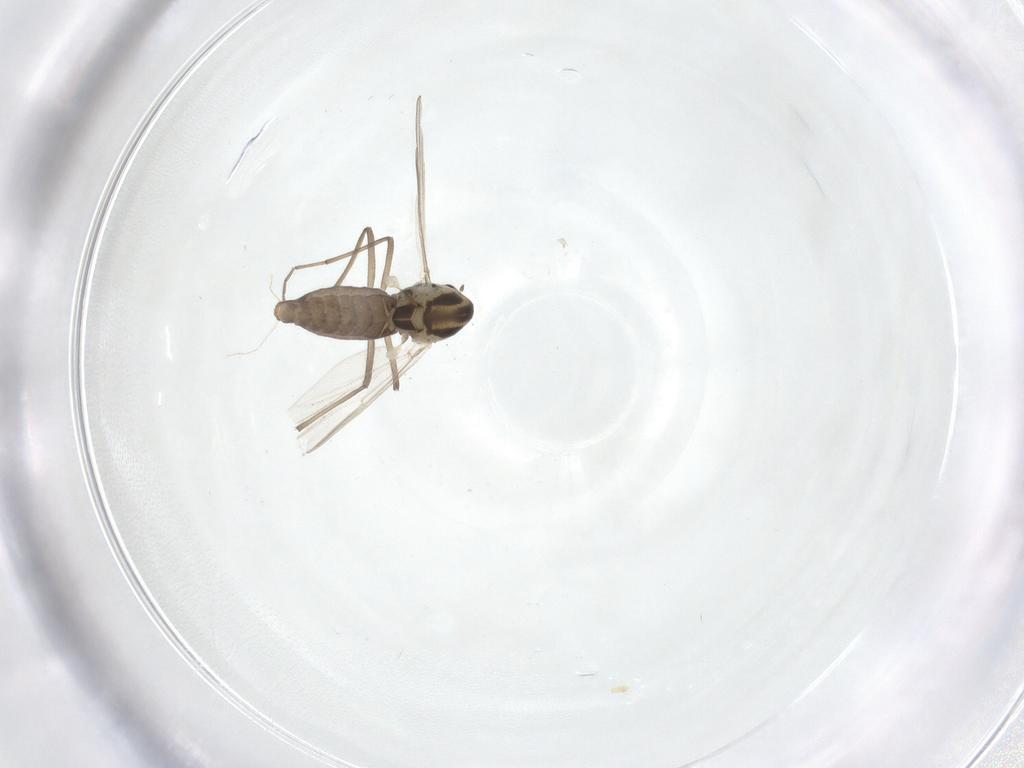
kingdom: Animalia
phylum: Arthropoda
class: Insecta
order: Diptera
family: Chironomidae
